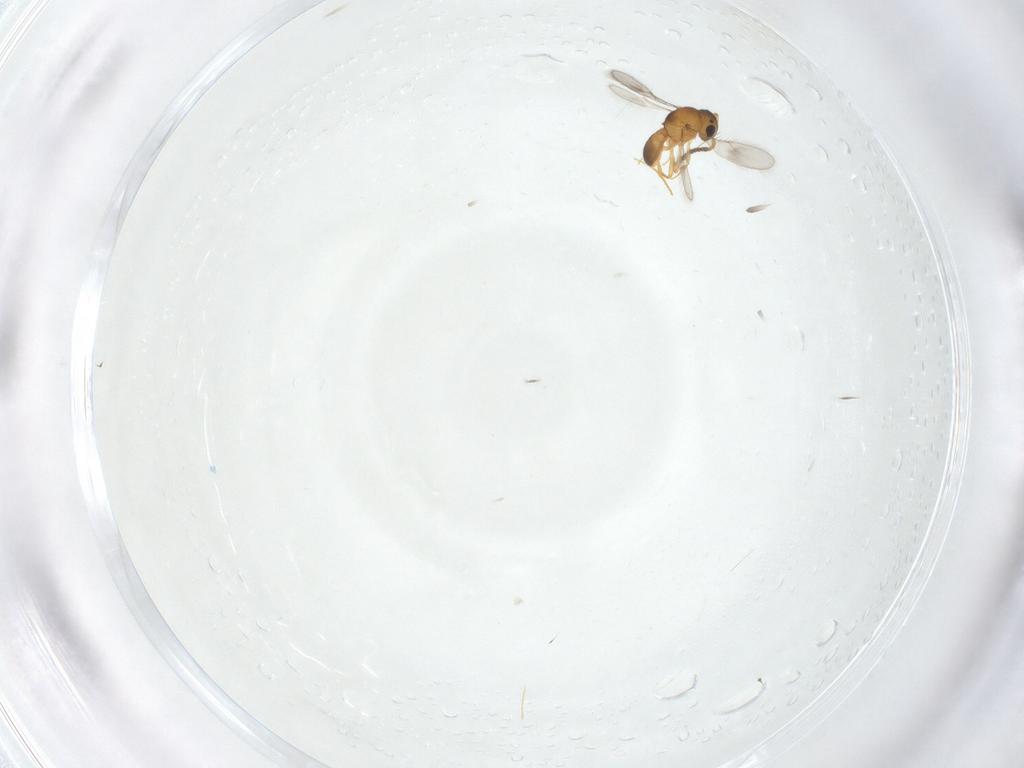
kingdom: Animalia
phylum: Arthropoda
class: Insecta
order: Hymenoptera
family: Scelionidae
